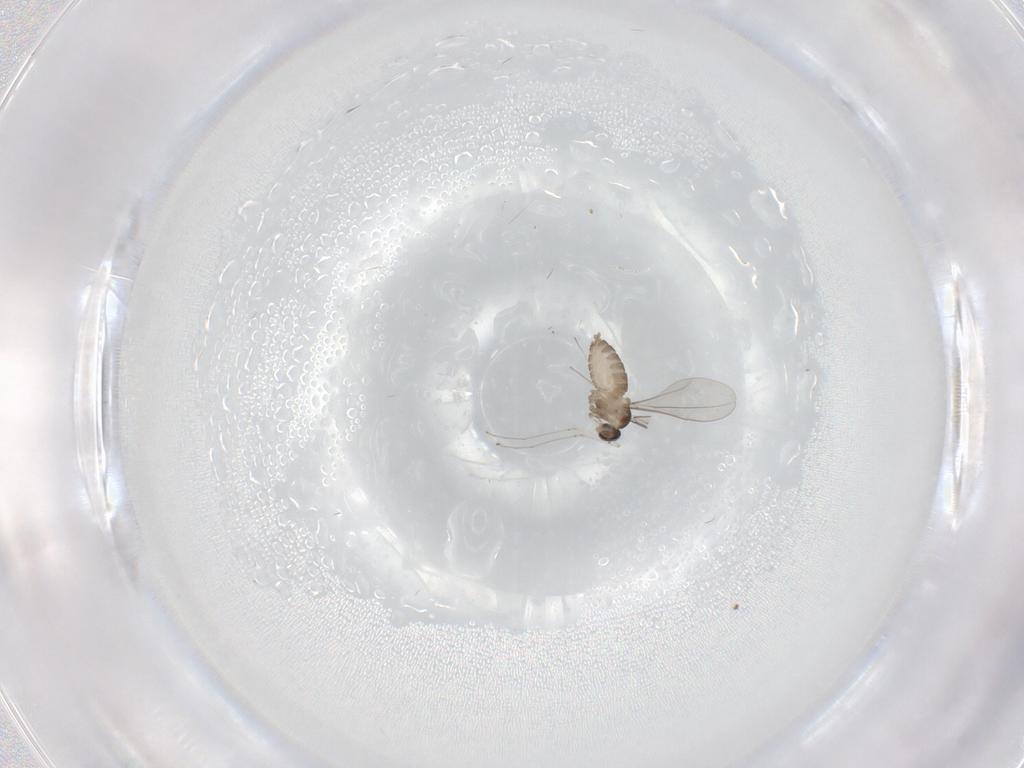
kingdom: Animalia
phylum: Arthropoda
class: Insecta
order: Diptera
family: Cecidomyiidae
